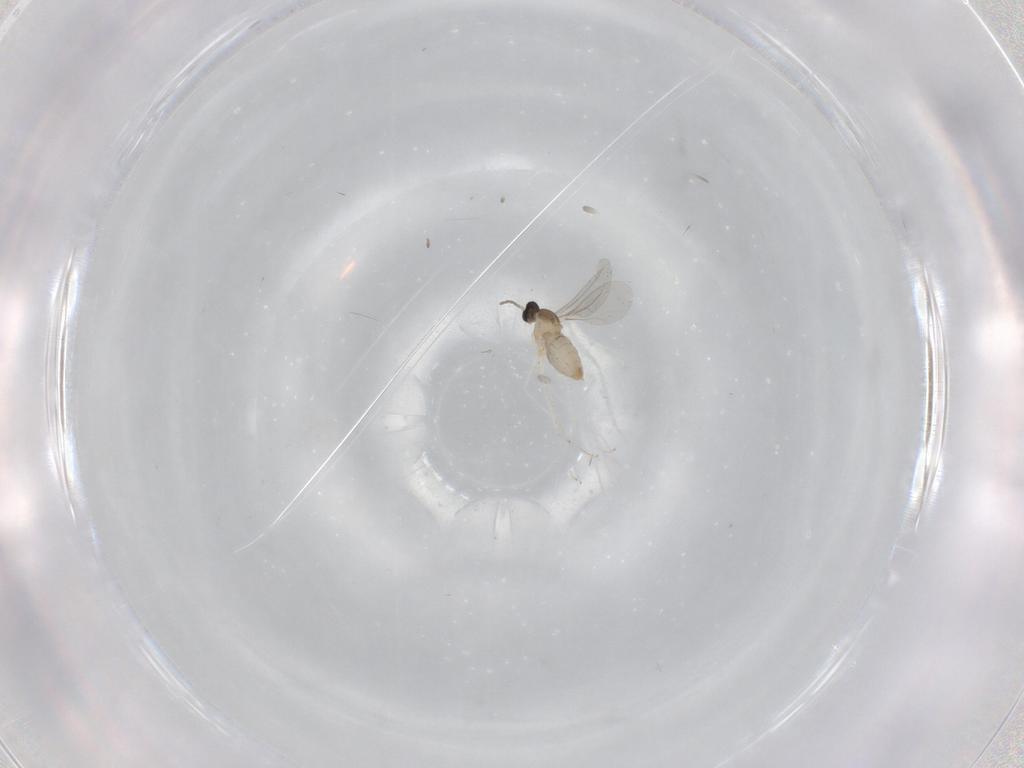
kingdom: Animalia
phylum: Arthropoda
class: Insecta
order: Diptera
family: Cecidomyiidae
